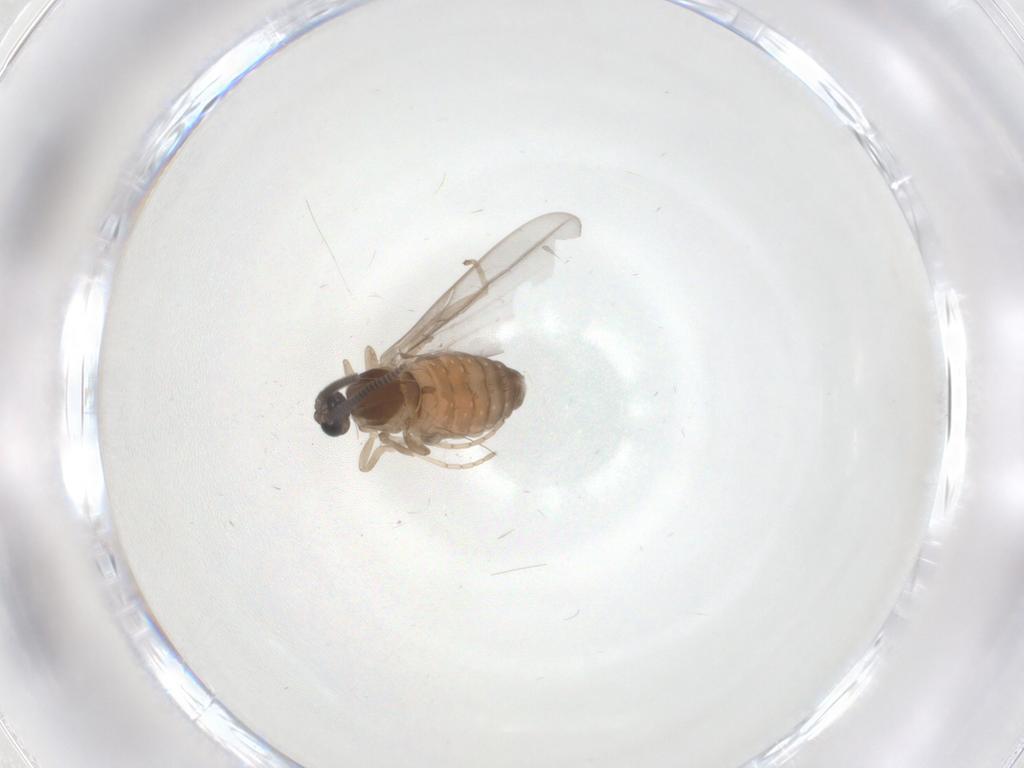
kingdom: Animalia
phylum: Arthropoda
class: Insecta
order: Diptera
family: Cecidomyiidae
